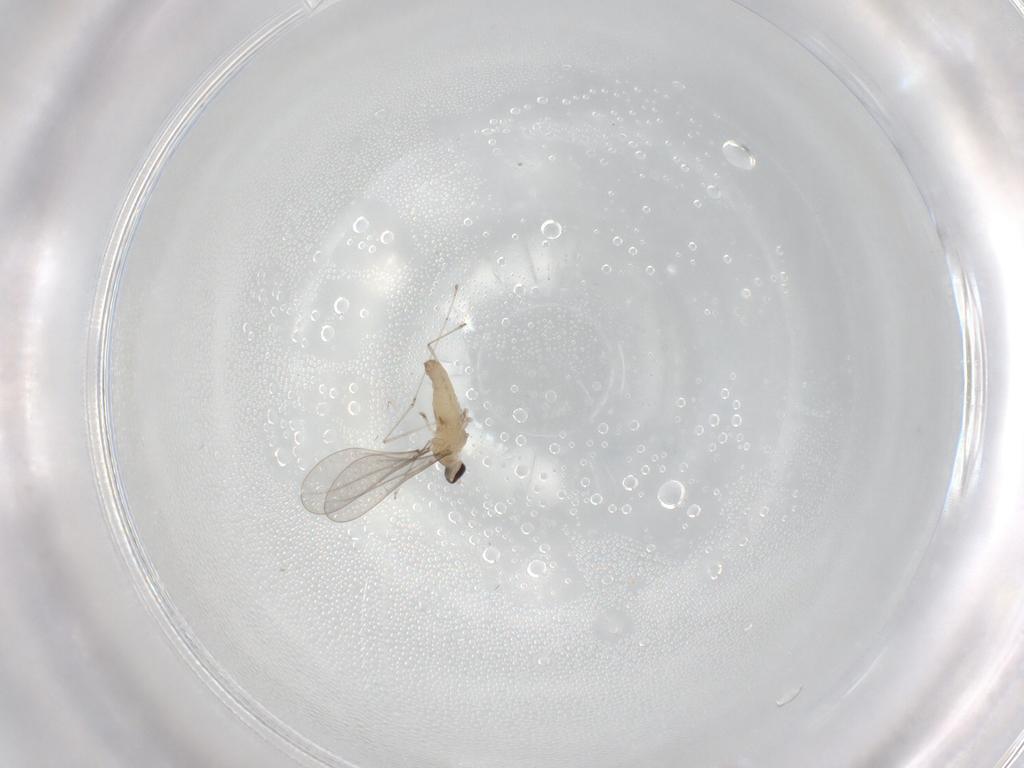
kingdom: Animalia
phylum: Arthropoda
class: Insecta
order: Diptera
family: Cecidomyiidae
